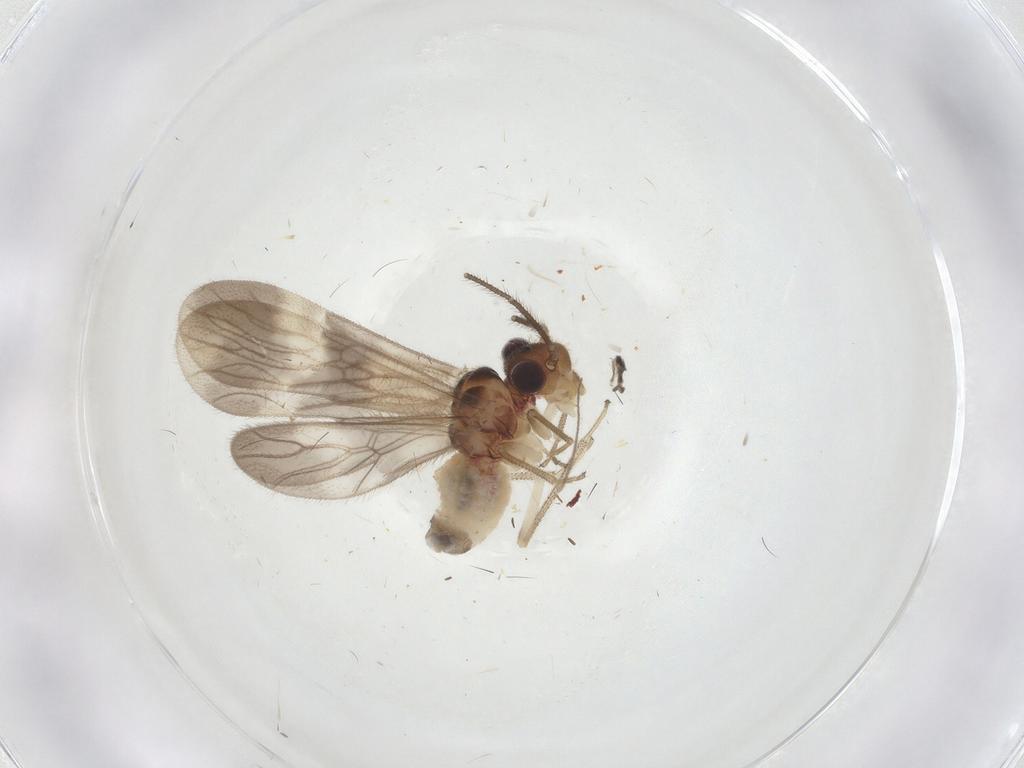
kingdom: Animalia
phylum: Arthropoda
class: Insecta
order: Psocodea
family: Amphipsocidae
